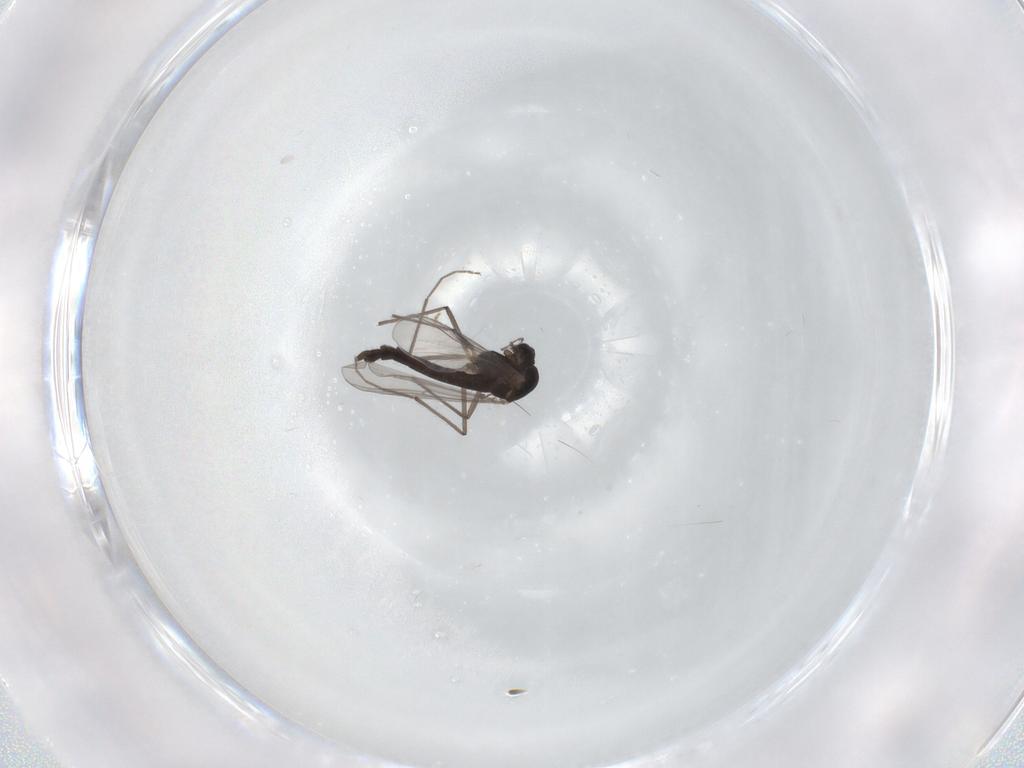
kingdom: Animalia
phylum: Arthropoda
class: Insecta
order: Diptera
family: Chironomidae
